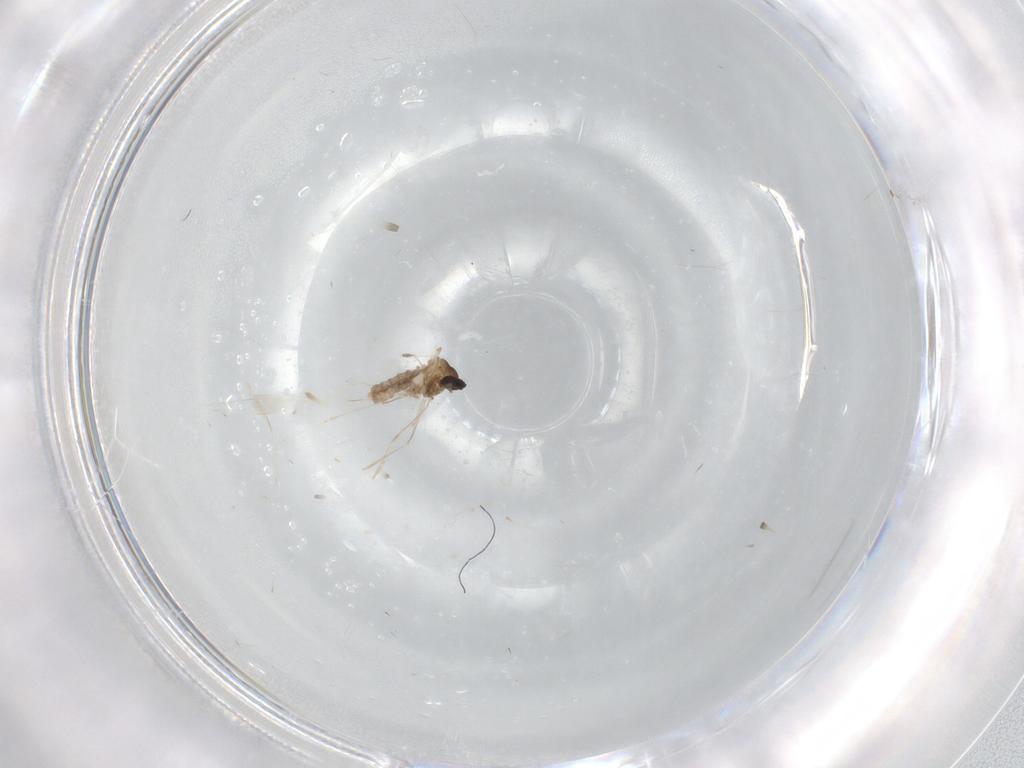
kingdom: Animalia
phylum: Arthropoda
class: Insecta
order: Diptera
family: Cecidomyiidae
